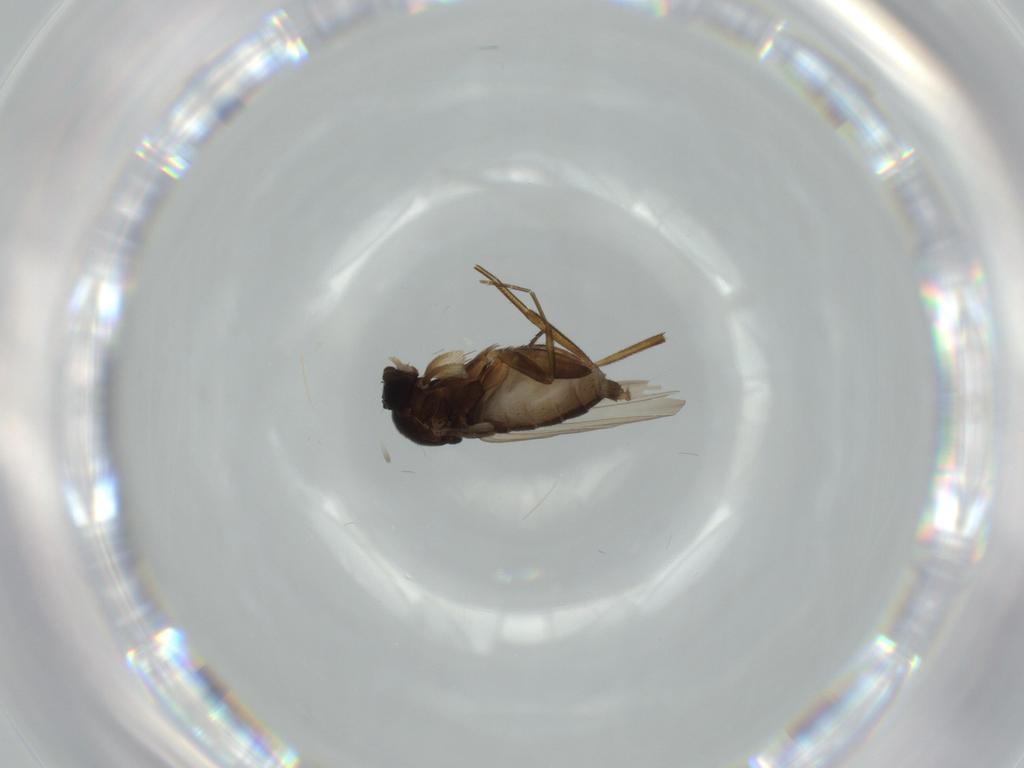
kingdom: Animalia
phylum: Arthropoda
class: Insecta
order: Diptera
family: Phoridae
